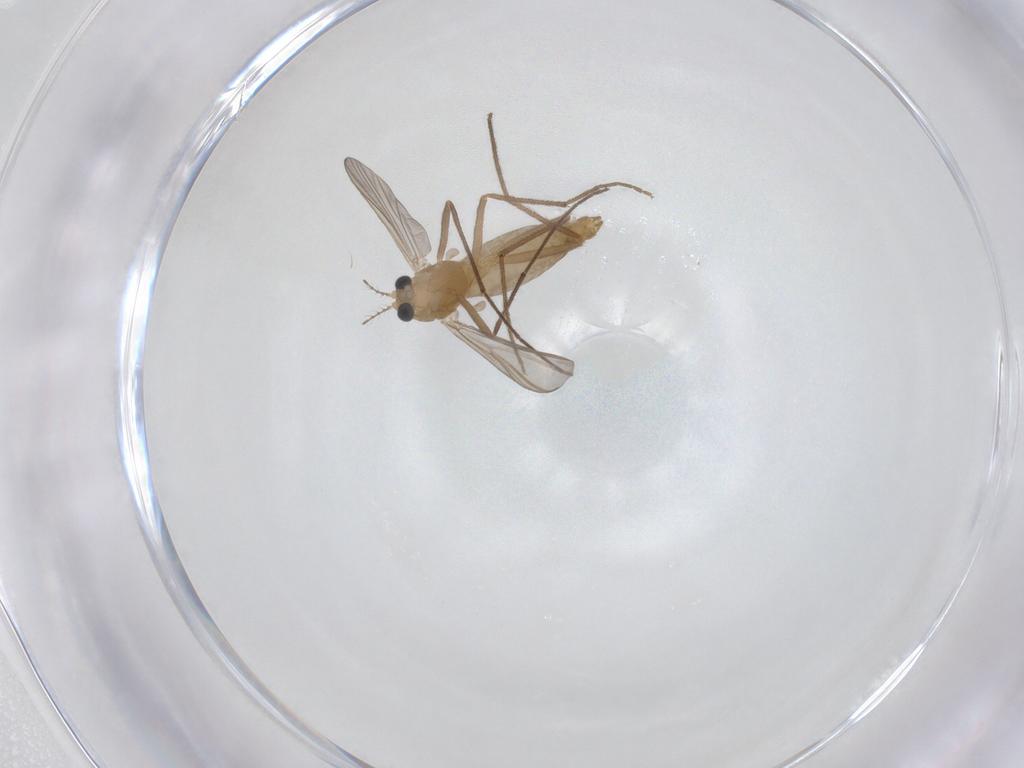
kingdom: Animalia
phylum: Arthropoda
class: Insecta
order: Diptera
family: Chironomidae
